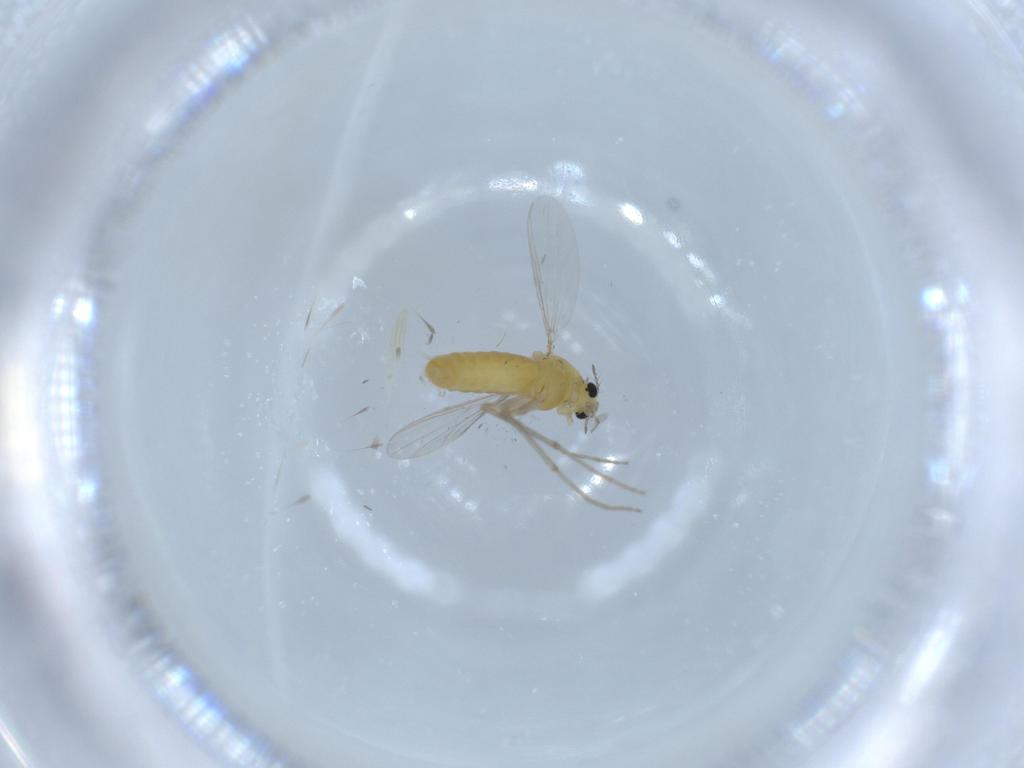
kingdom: Animalia
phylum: Arthropoda
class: Insecta
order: Diptera
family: Chironomidae
